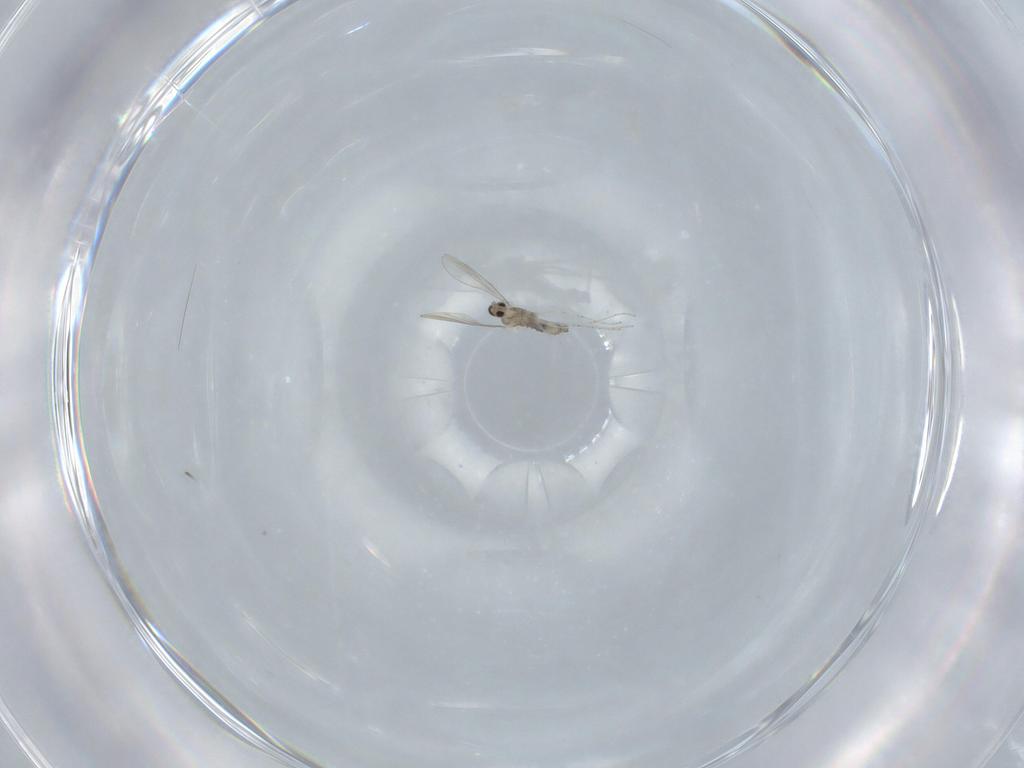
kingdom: Animalia
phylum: Arthropoda
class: Insecta
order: Diptera
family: Cecidomyiidae
